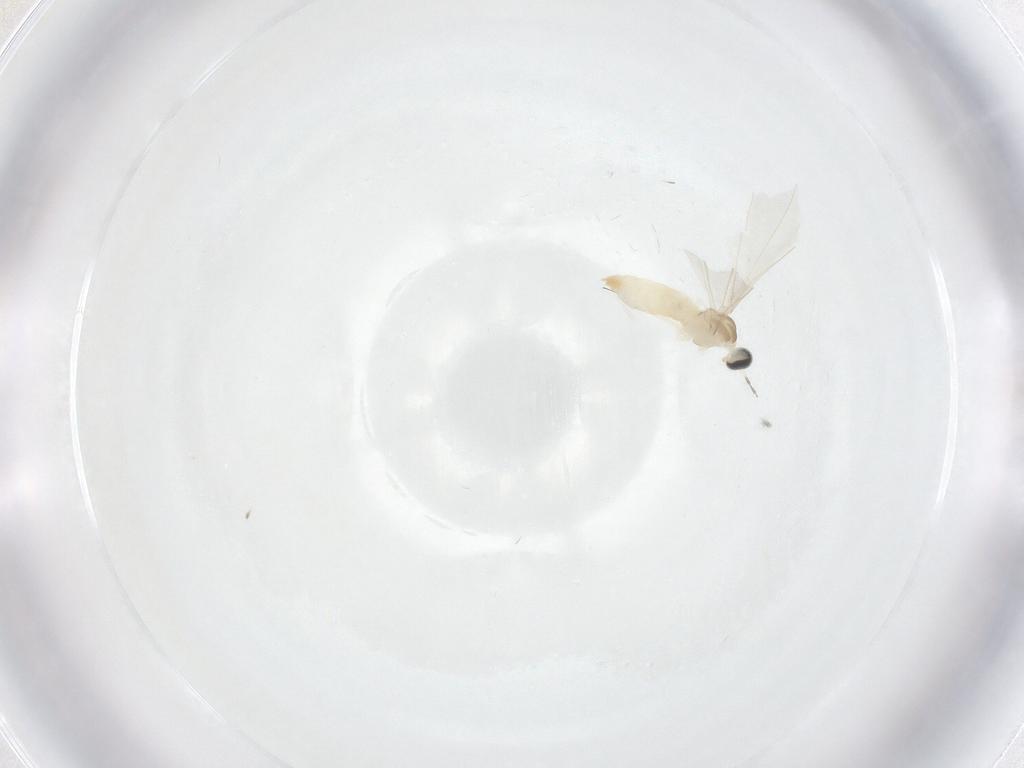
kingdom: Animalia
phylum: Arthropoda
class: Insecta
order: Diptera
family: Cecidomyiidae
